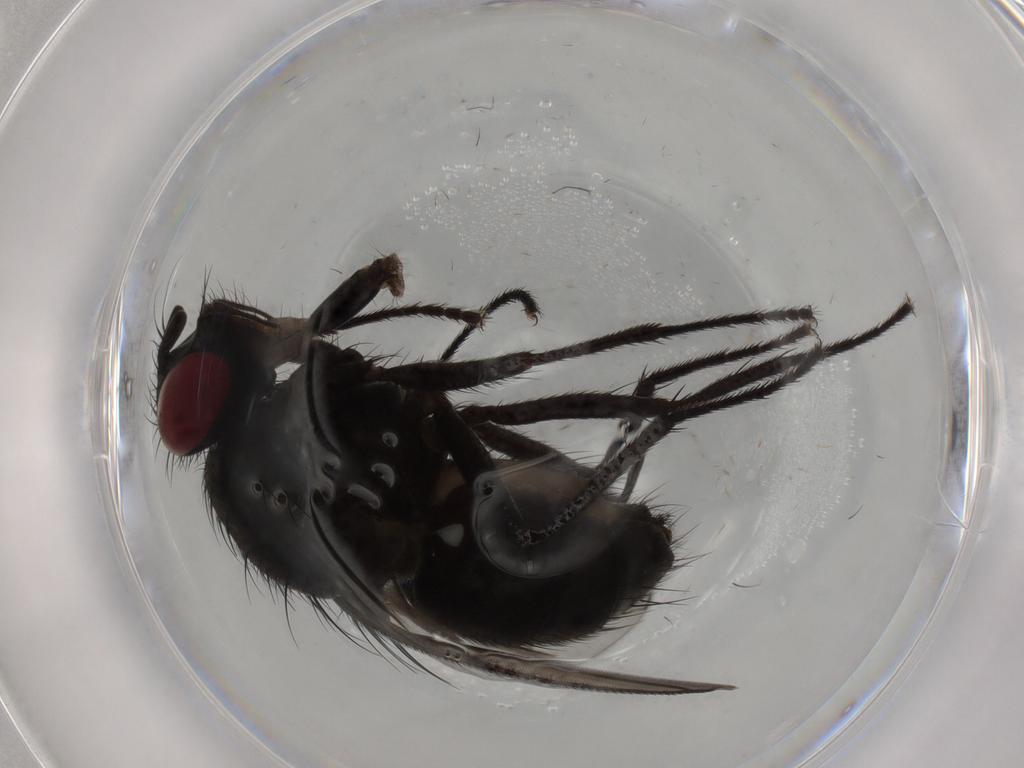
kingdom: Animalia
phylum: Arthropoda
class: Insecta
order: Diptera
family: Muscidae
